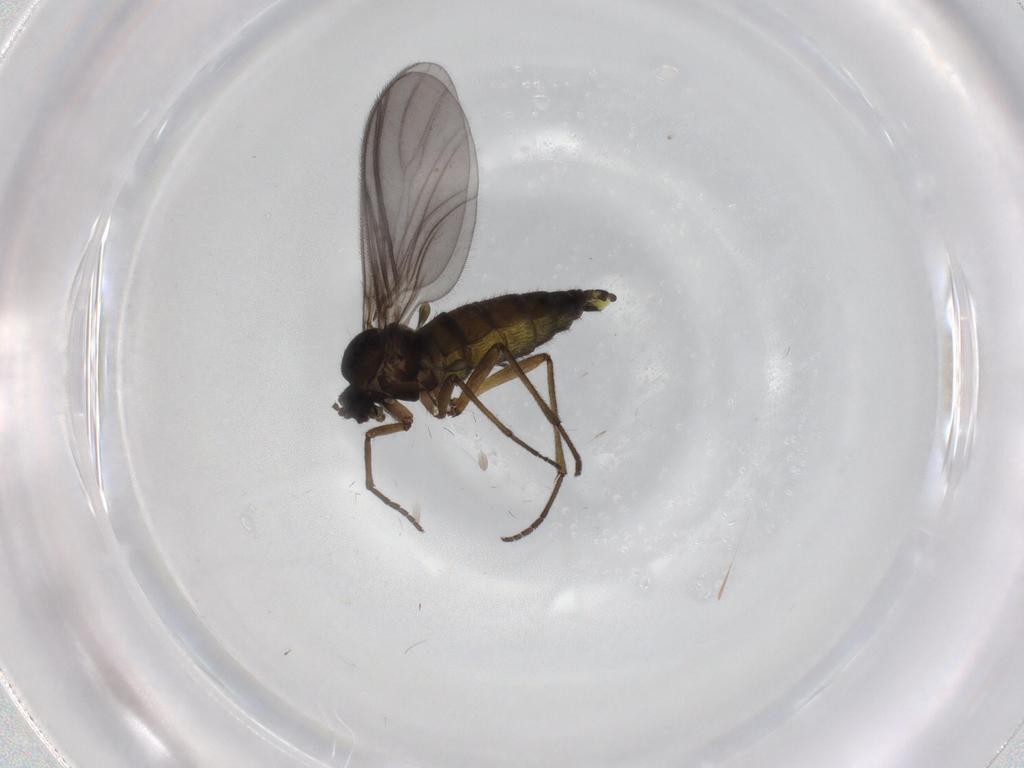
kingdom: Animalia
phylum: Arthropoda
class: Insecta
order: Diptera
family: Sciaridae
